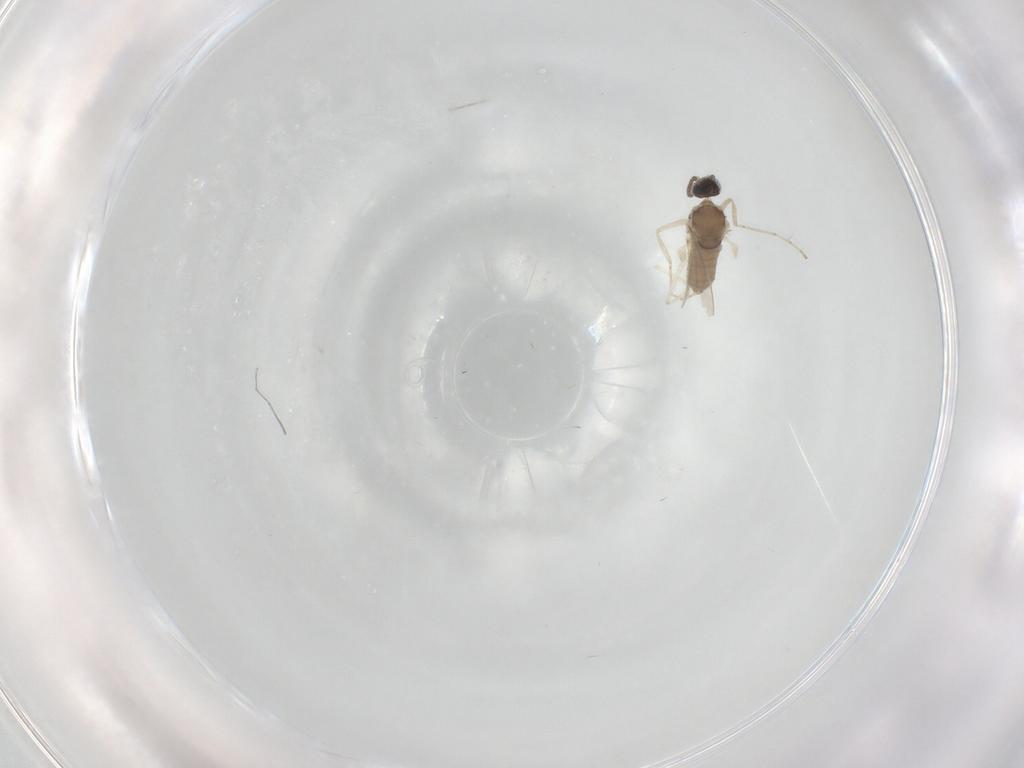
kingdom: Animalia
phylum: Arthropoda
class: Insecta
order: Diptera
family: Cecidomyiidae
